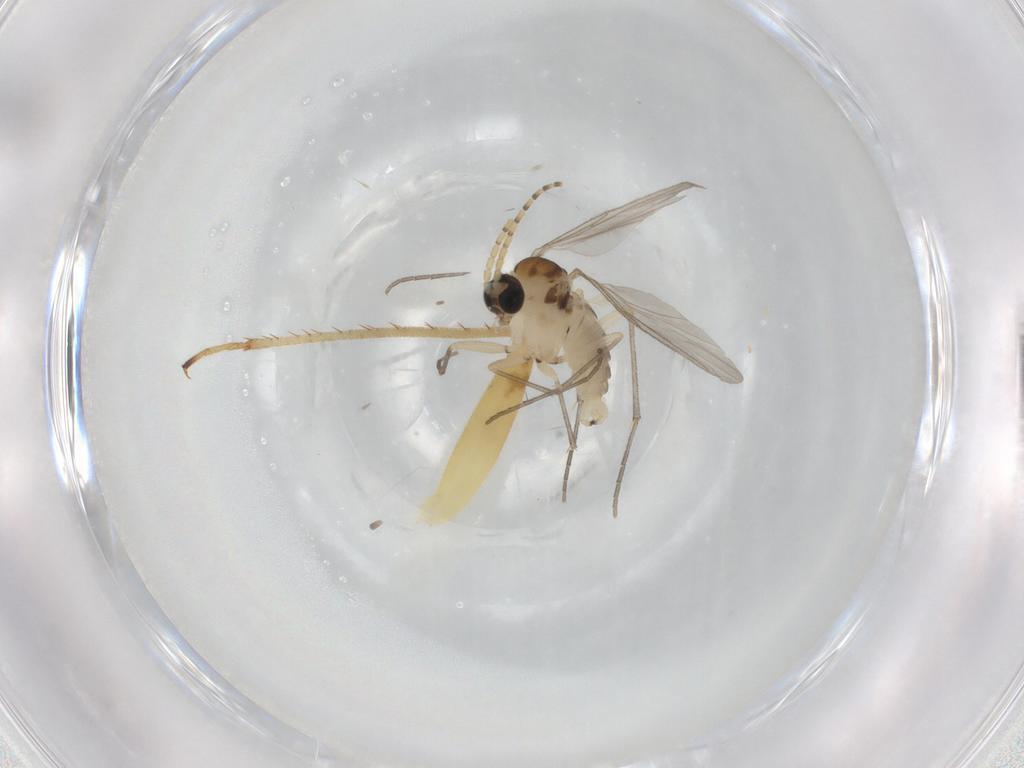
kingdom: Animalia
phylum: Arthropoda
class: Insecta
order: Diptera
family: Sciaridae
